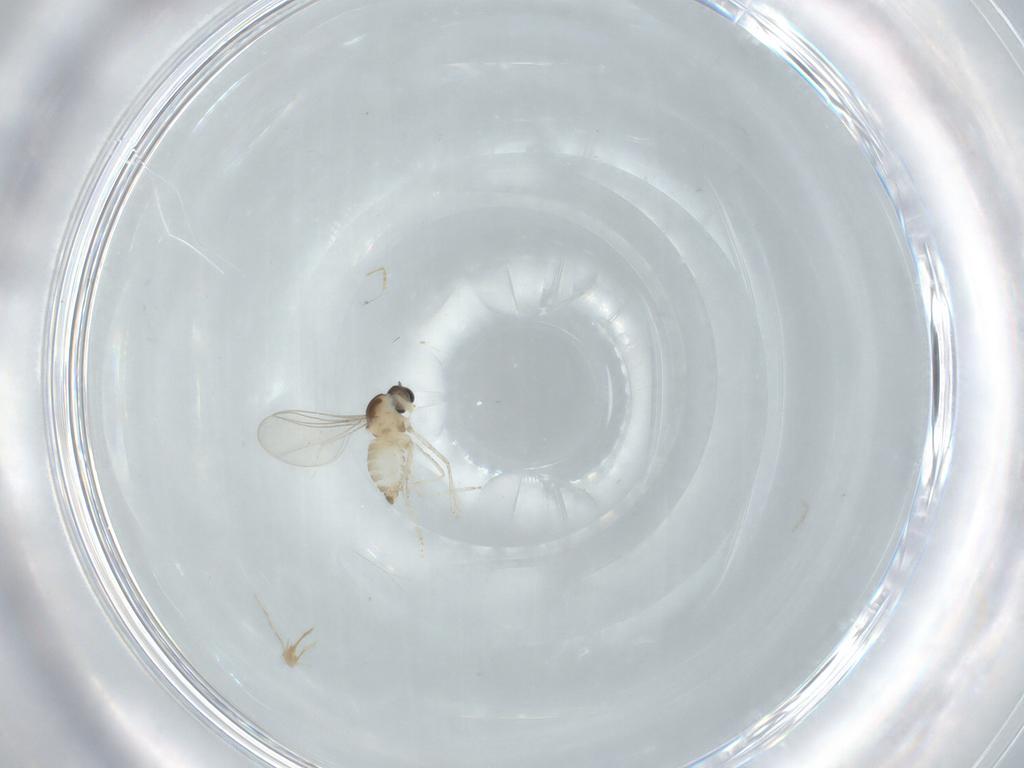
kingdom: Animalia
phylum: Arthropoda
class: Insecta
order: Diptera
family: Cecidomyiidae
